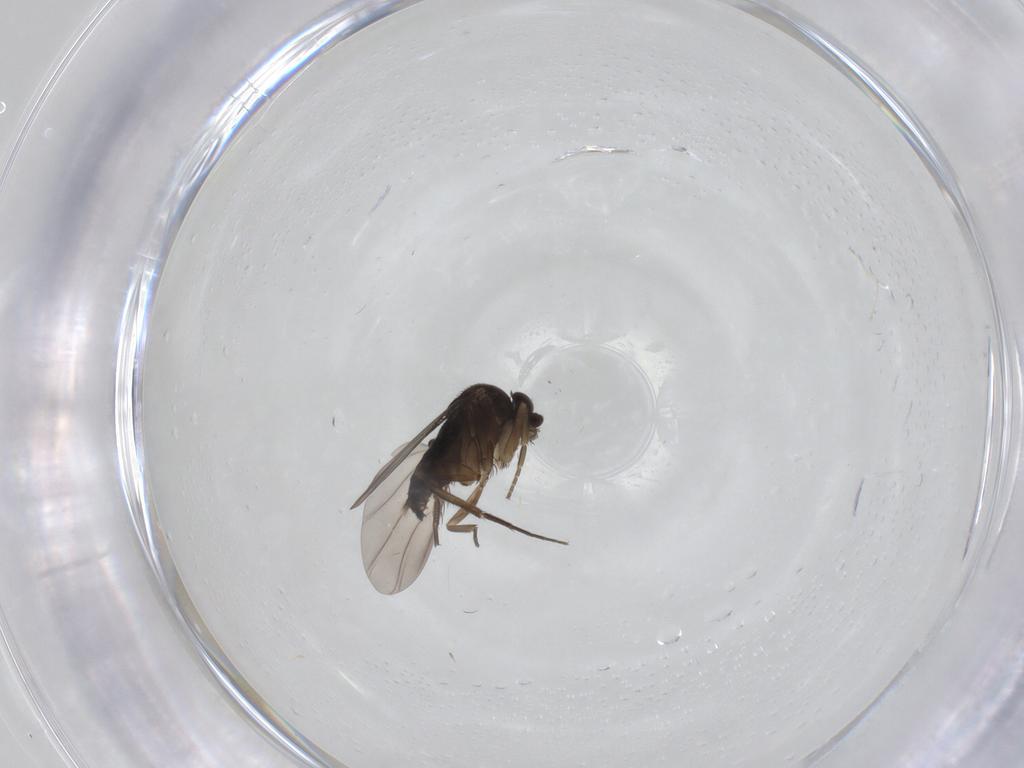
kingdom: Animalia
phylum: Arthropoda
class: Insecta
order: Diptera
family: Phoridae
